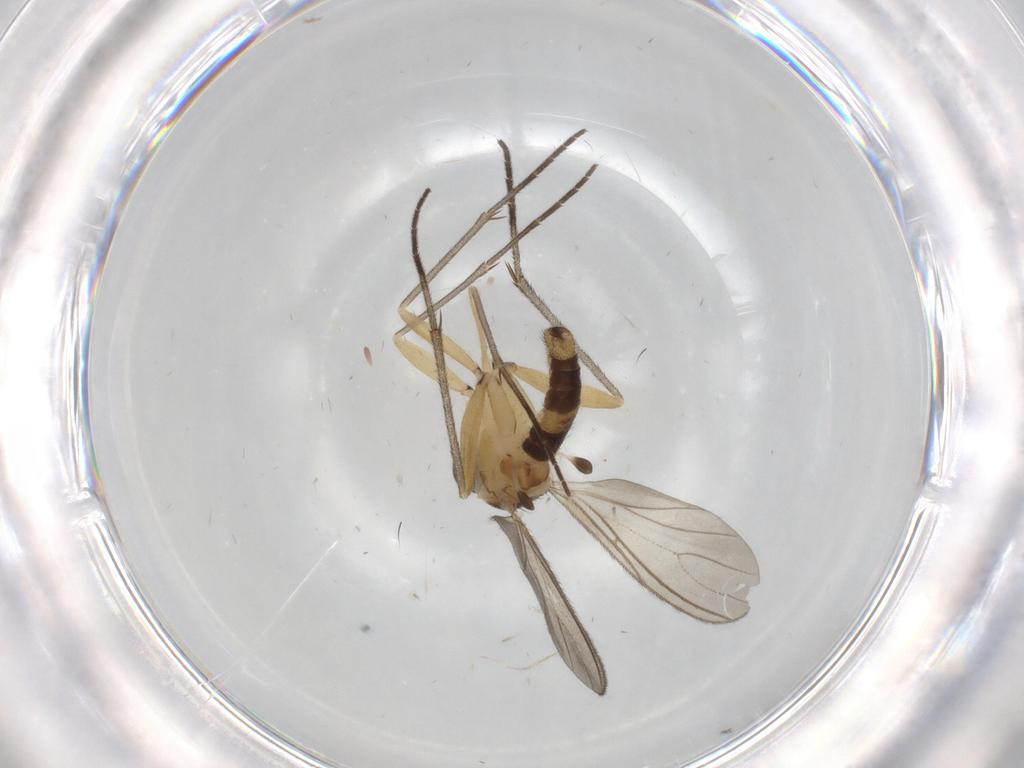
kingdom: Animalia
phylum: Arthropoda
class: Insecta
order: Diptera
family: Sciaridae
